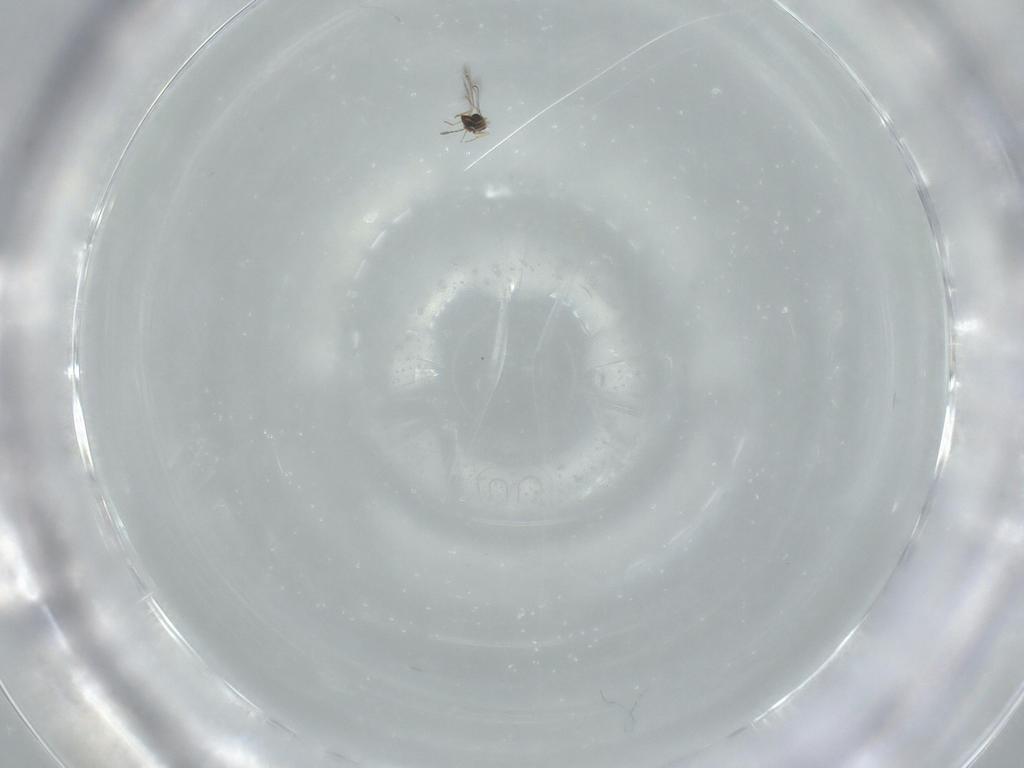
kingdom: Animalia
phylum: Arthropoda
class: Insecta
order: Hymenoptera
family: Mymaridae
